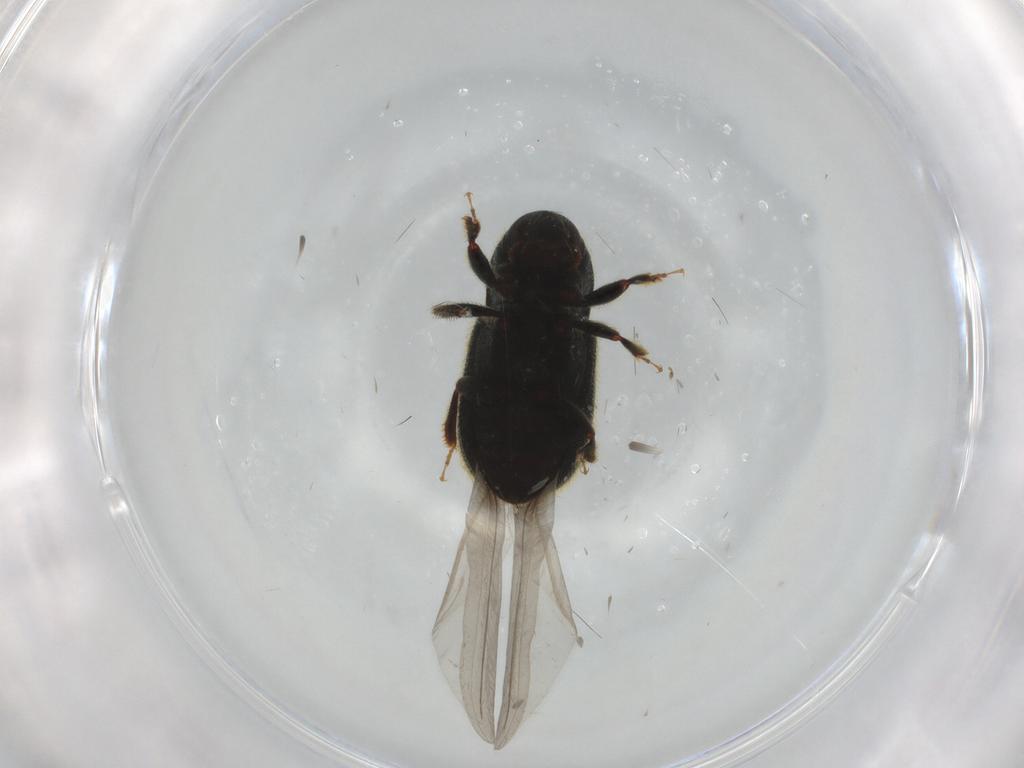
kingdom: Animalia
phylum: Arthropoda
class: Insecta
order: Coleoptera
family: Curculionidae
